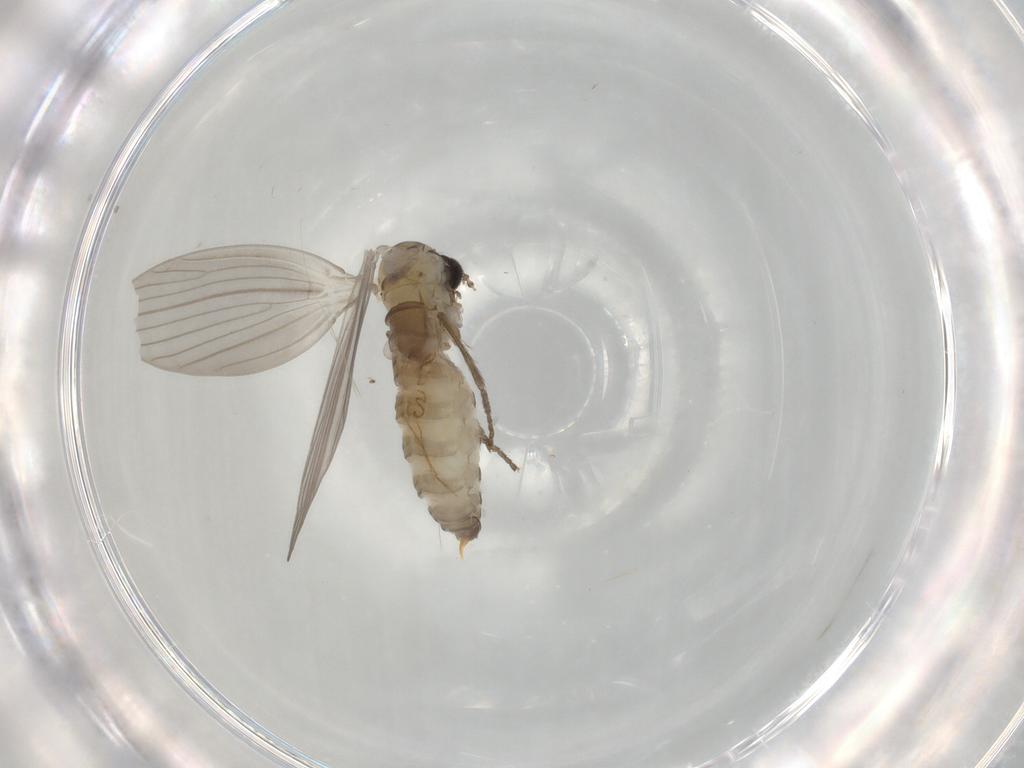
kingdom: Animalia
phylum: Arthropoda
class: Insecta
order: Diptera
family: Psychodidae
